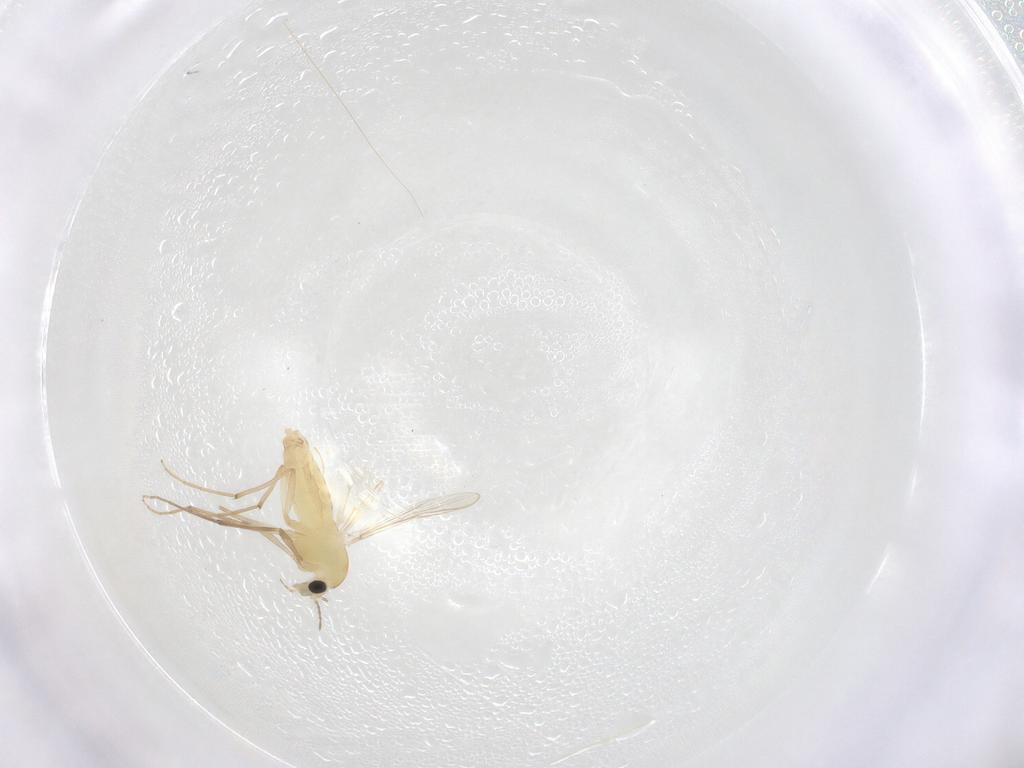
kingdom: Animalia
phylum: Arthropoda
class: Insecta
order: Diptera
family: Chironomidae
